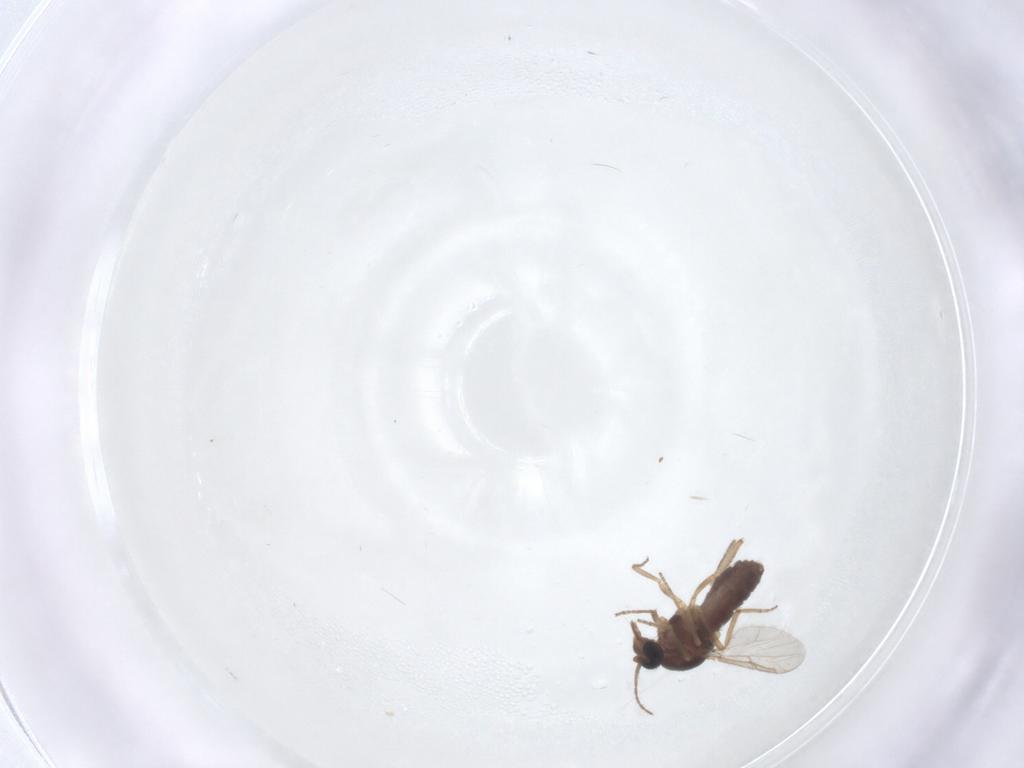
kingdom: Animalia
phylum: Arthropoda
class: Insecta
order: Diptera
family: Ceratopogonidae
